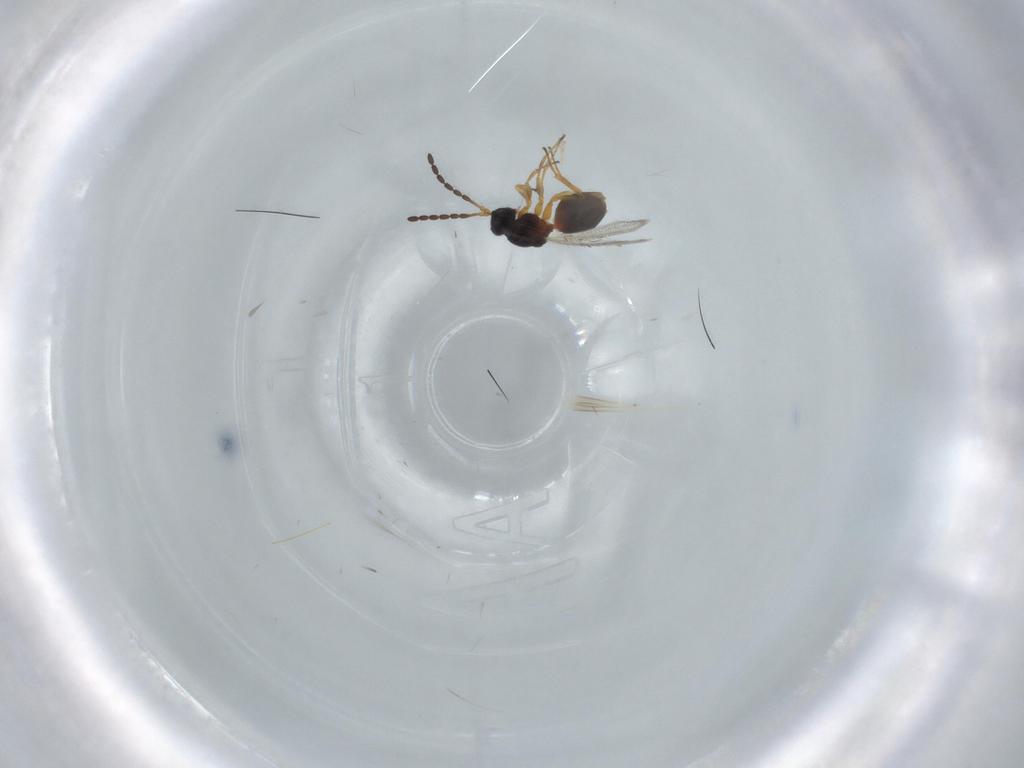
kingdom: Animalia
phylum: Arthropoda
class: Insecta
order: Hymenoptera
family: Figitidae
